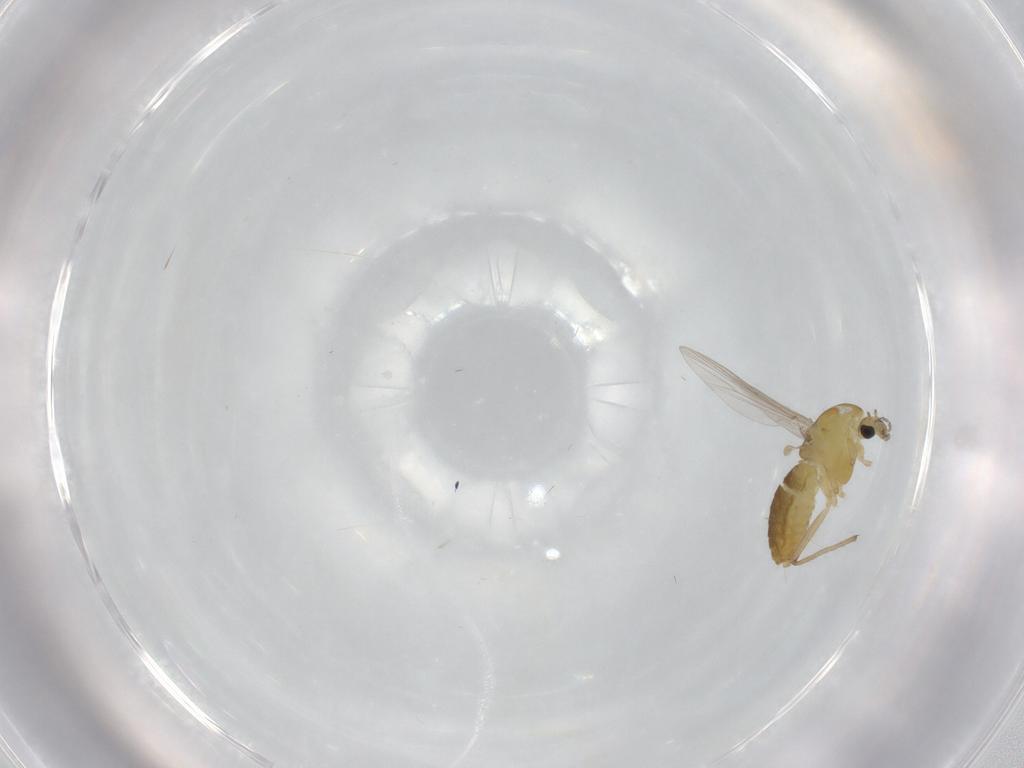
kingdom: Animalia
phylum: Arthropoda
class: Insecta
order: Diptera
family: Chironomidae
